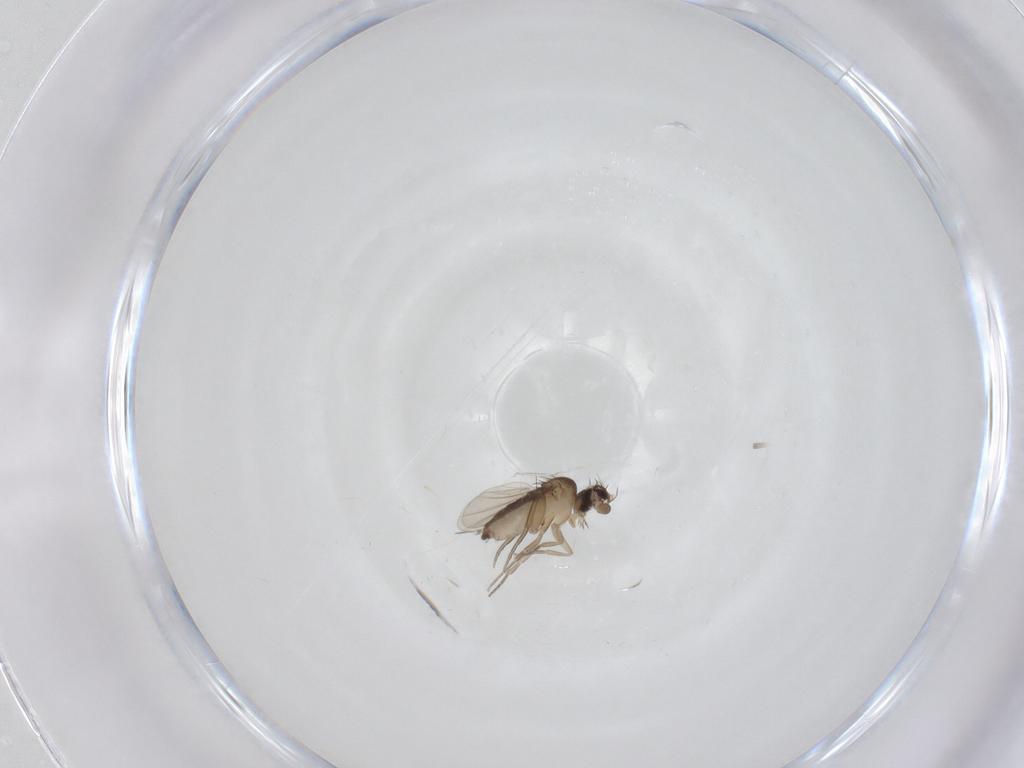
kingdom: Animalia
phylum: Arthropoda
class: Insecta
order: Diptera
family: Phoridae
